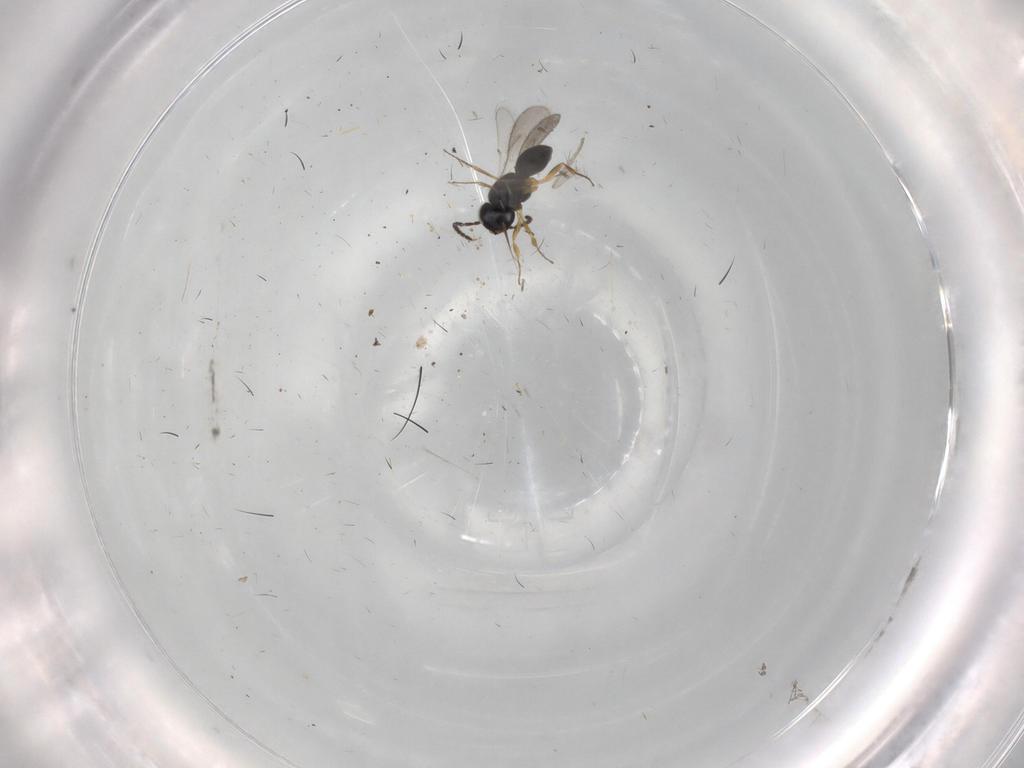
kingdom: Animalia
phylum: Arthropoda
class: Insecta
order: Hymenoptera
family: Scelionidae
